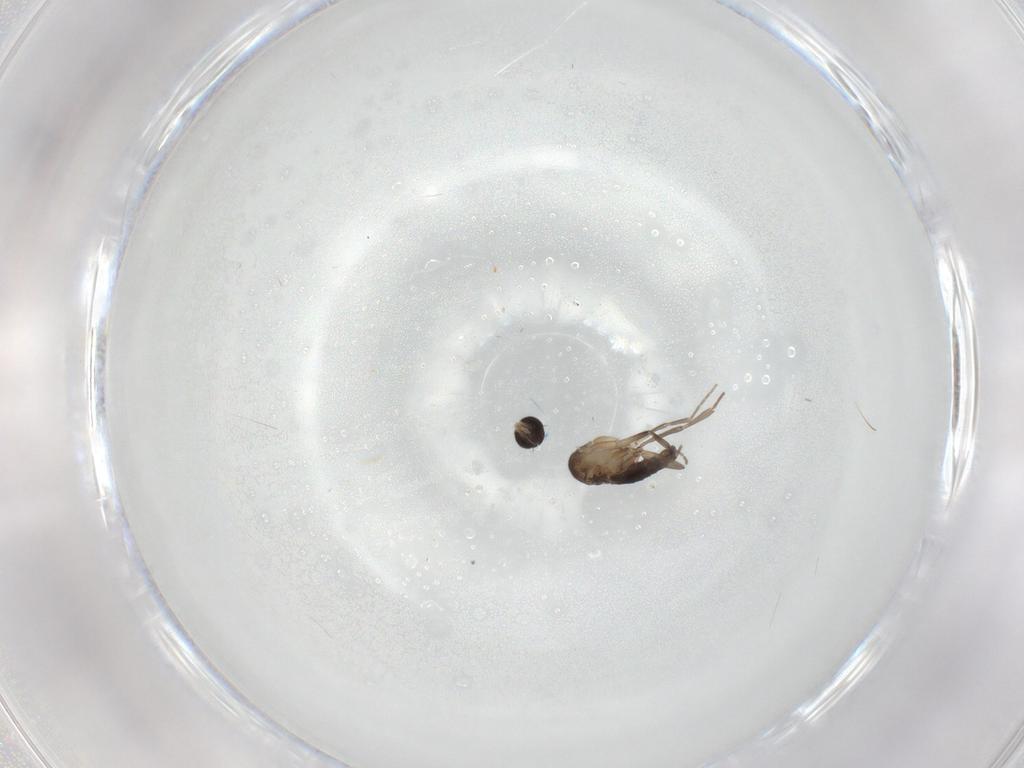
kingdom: Animalia
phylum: Arthropoda
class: Insecta
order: Diptera
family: Phoridae
